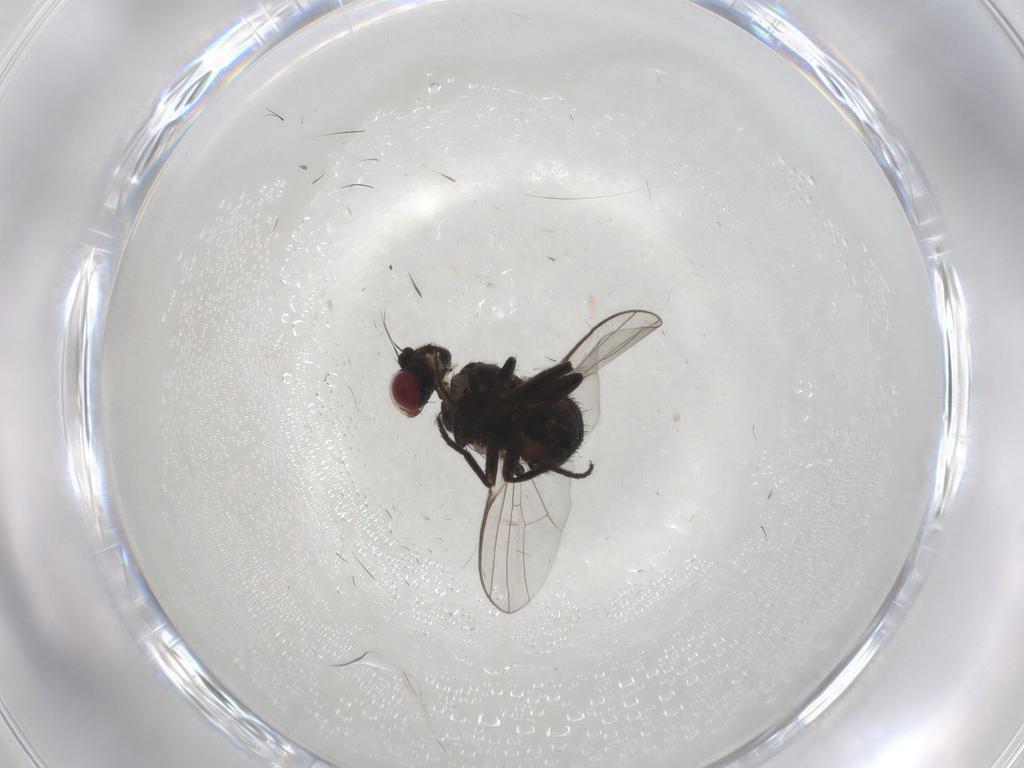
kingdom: Animalia
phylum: Arthropoda
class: Insecta
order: Diptera
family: Agromyzidae
